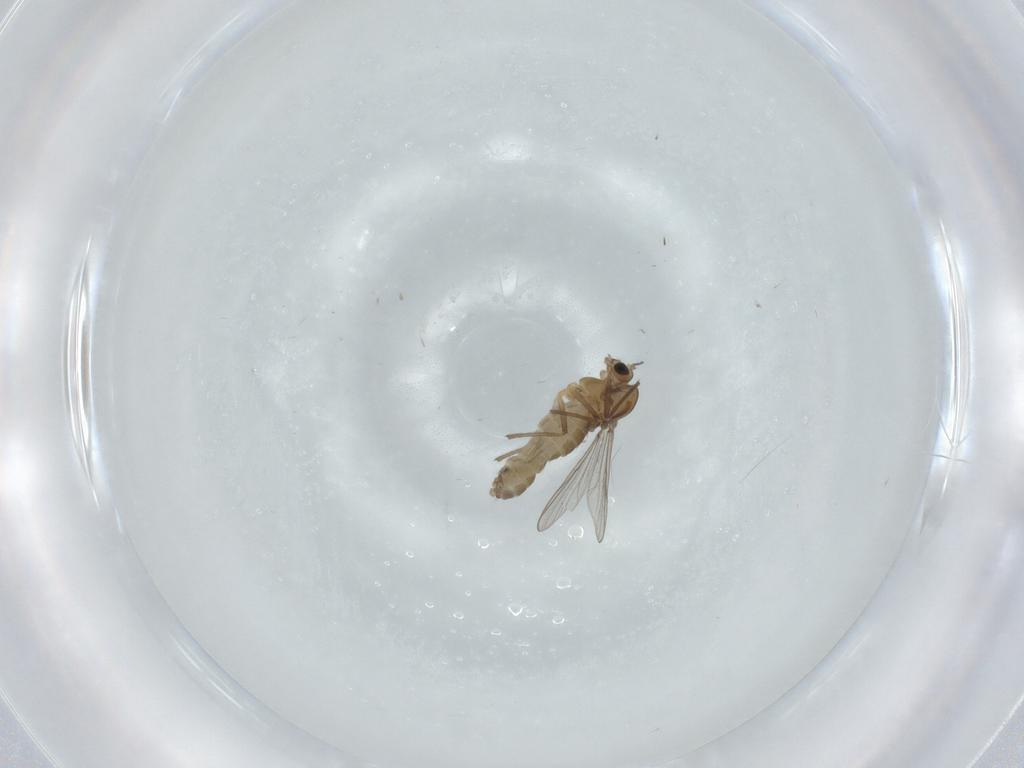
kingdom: Animalia
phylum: Arthropoda
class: Insecta
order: Diptera
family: Chironomidae
